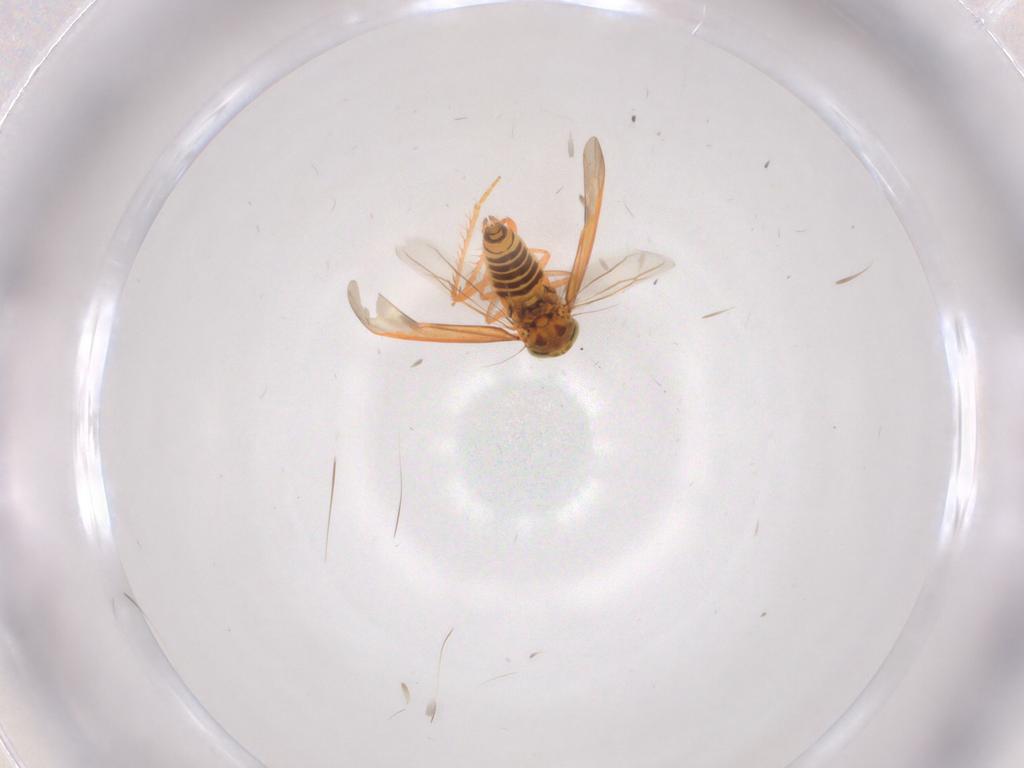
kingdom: Animalia
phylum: Arthropoda
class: Insecta
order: Hemiptera
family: Cicadellidae
